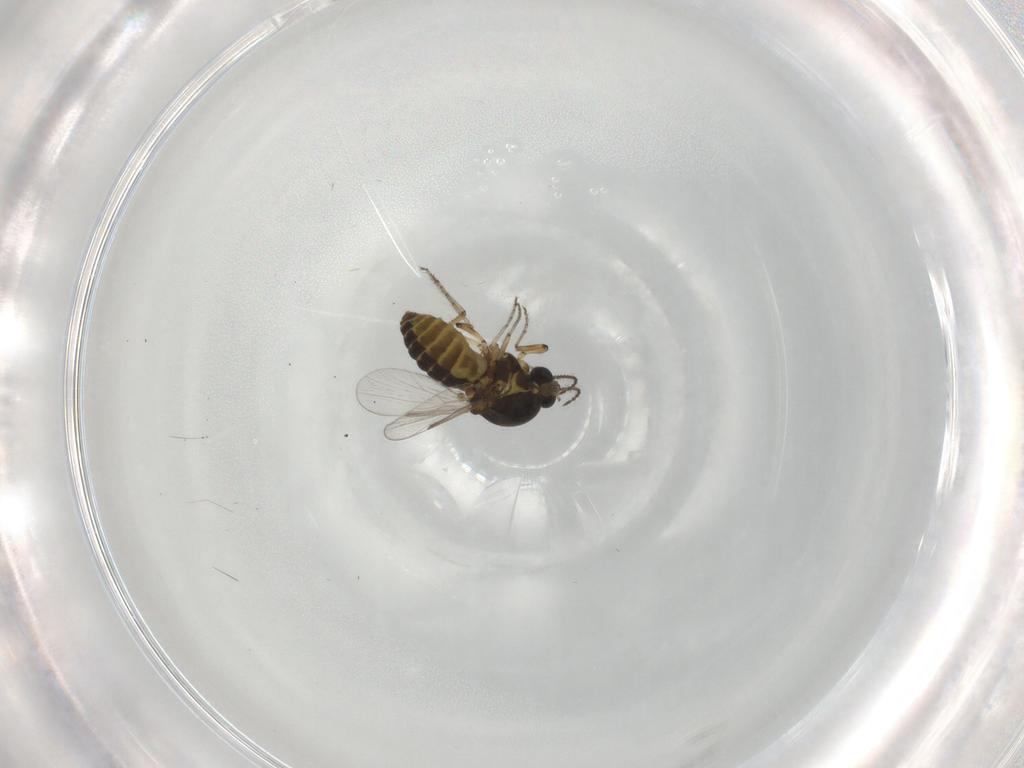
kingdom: Animalia
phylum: Arthropoda
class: Insecta
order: Diptera
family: Ceratopogonidae
